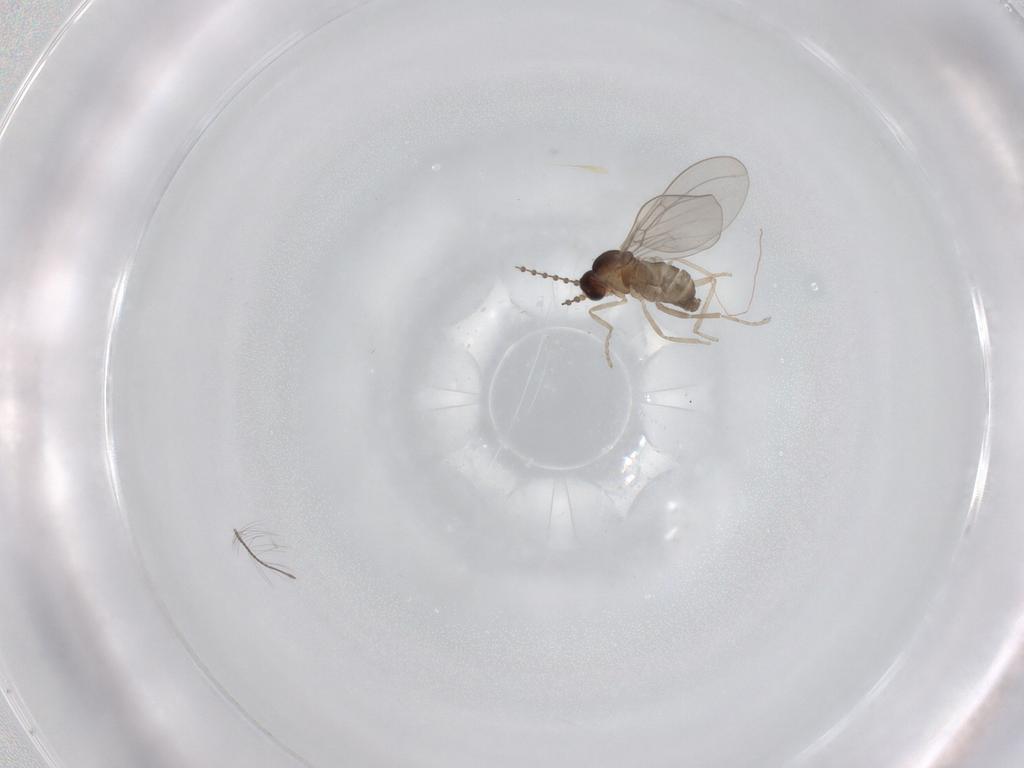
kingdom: Animalia
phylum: Arthropoda
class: Insecta
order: Diptera
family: Cecidomyiidae
